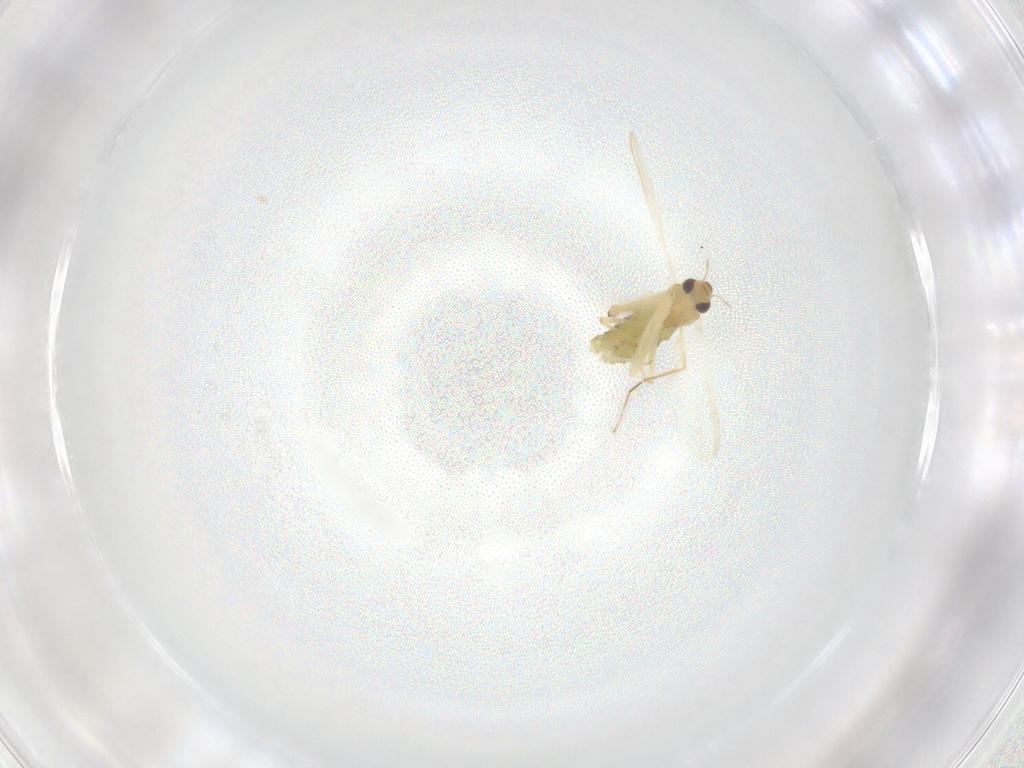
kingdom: Animalia
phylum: Arthropoda
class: Insecta
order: Diptera
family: Chironomidae
